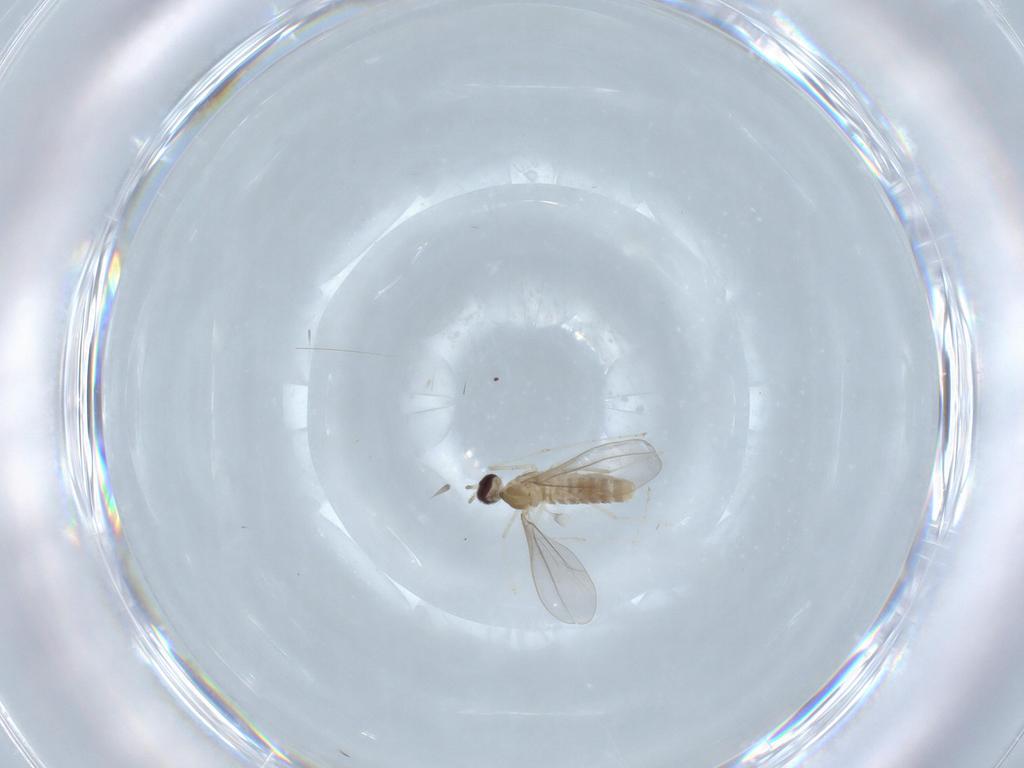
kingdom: Animalia
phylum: Arthropoda
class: Insecta
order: Diptera
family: Cecidomyiidae
